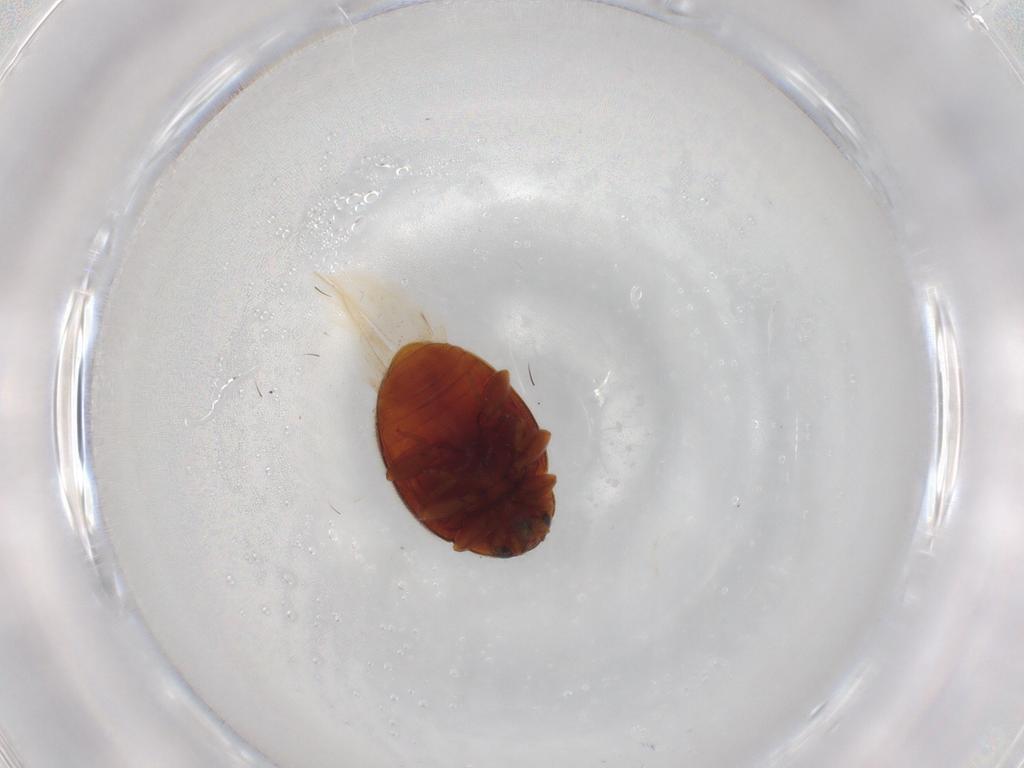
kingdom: Animalia
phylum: Arthropoda
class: Insecta
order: Coleoptera
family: Coccinellidae
